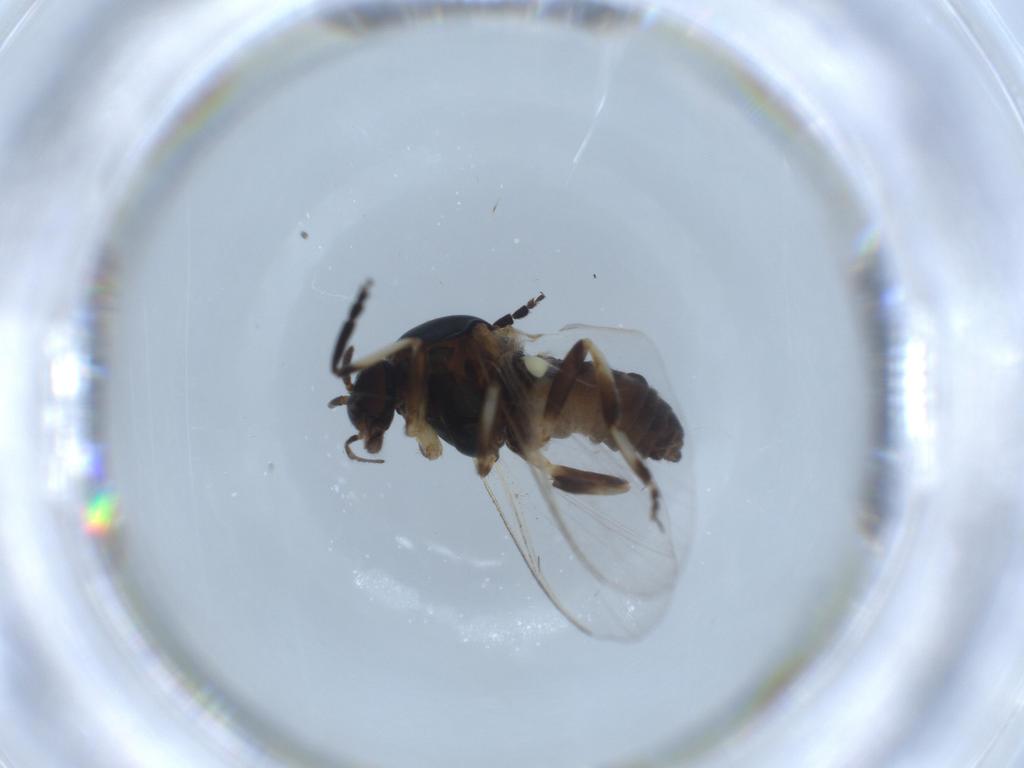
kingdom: Animalia
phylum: Arthropoda
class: Insecta
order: Diptera
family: Simuliidae
